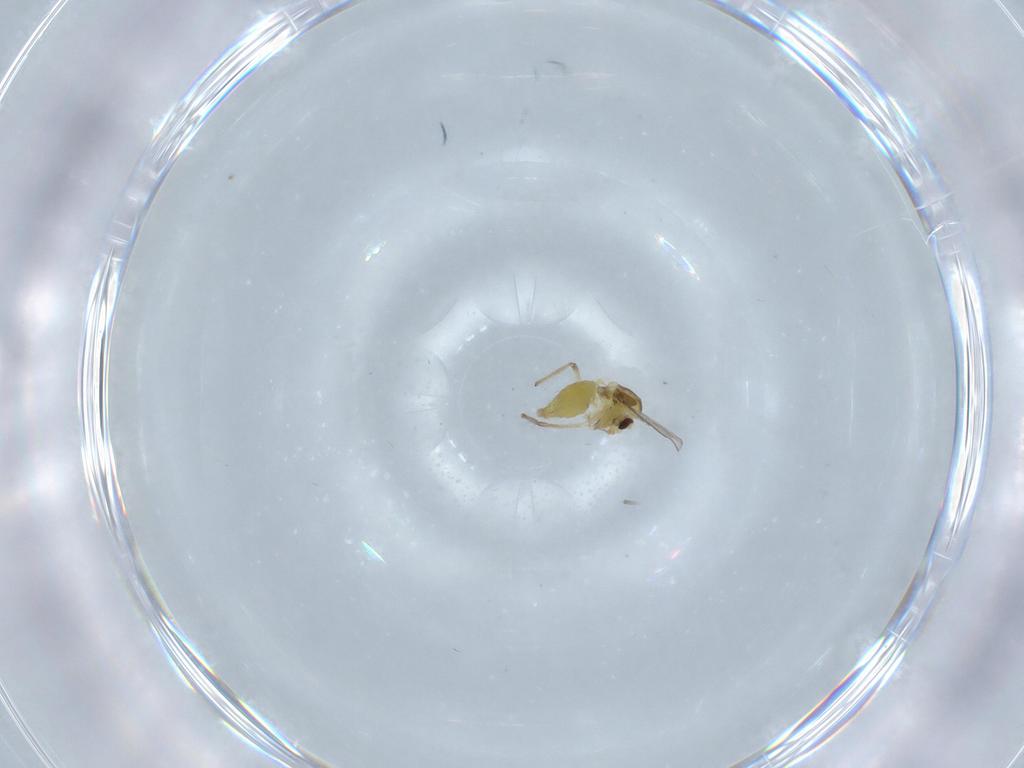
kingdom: Animalia
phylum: Arthropoda
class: Insecta
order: Diptera
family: Chironomidae
